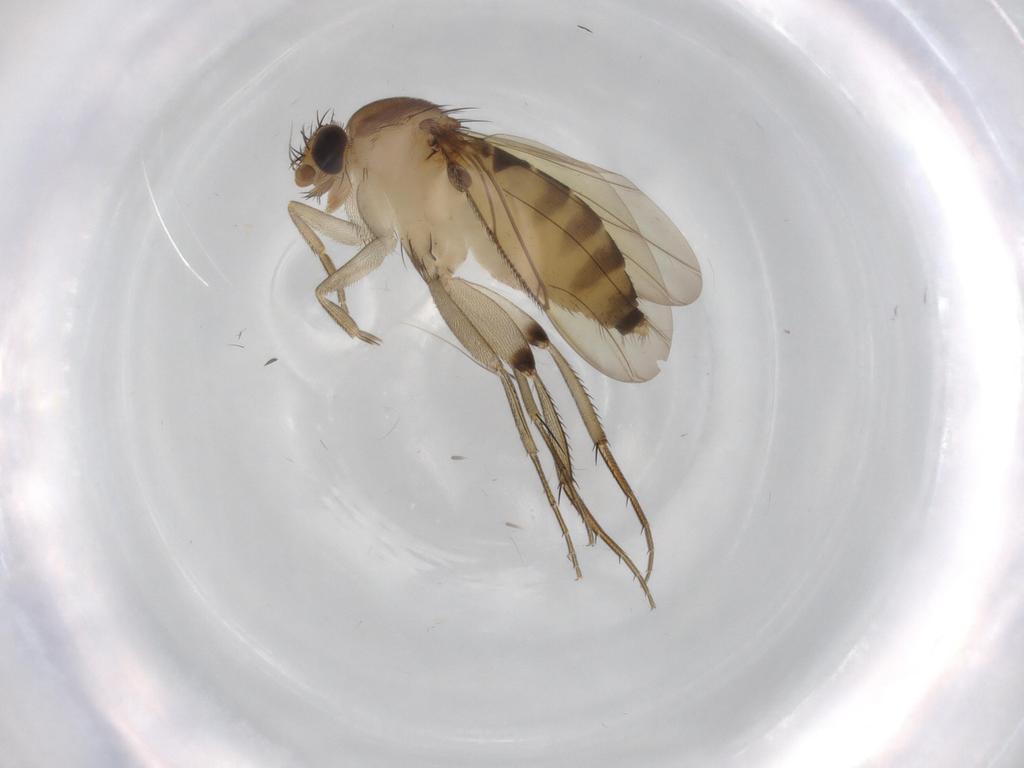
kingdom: Animalia
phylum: Arthropoda
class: Insecta
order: Diptera
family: Phoridae
